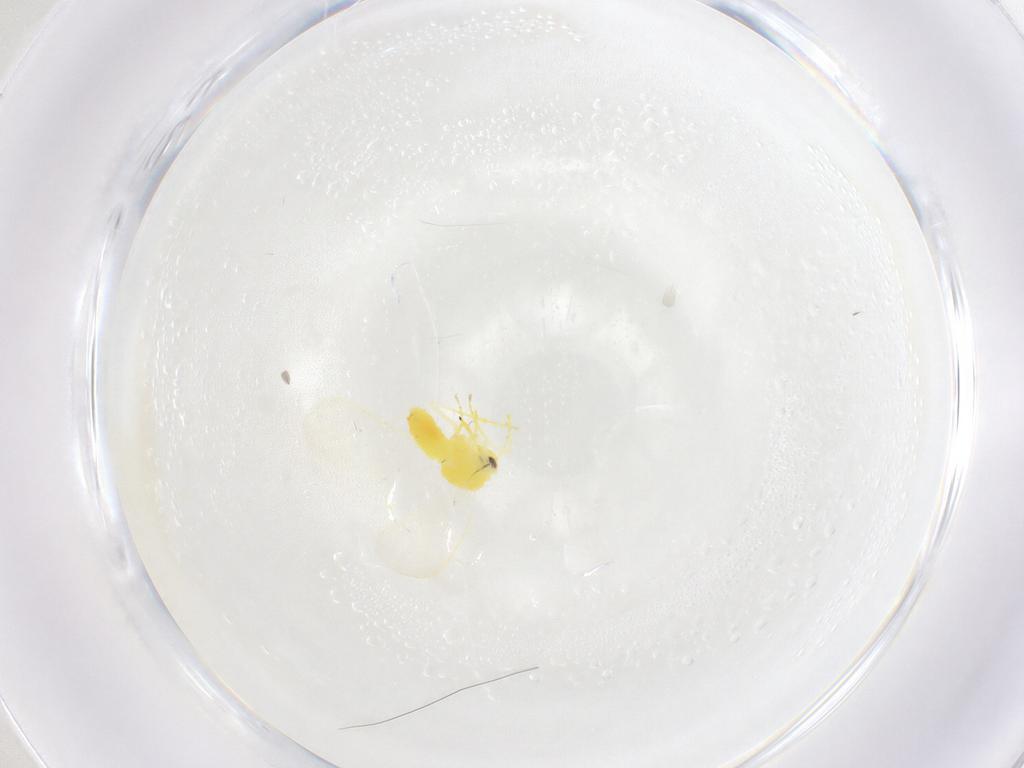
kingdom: Animalia
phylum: Arthropoda
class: Insecta
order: Hemiptera
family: Aleyrodidae
